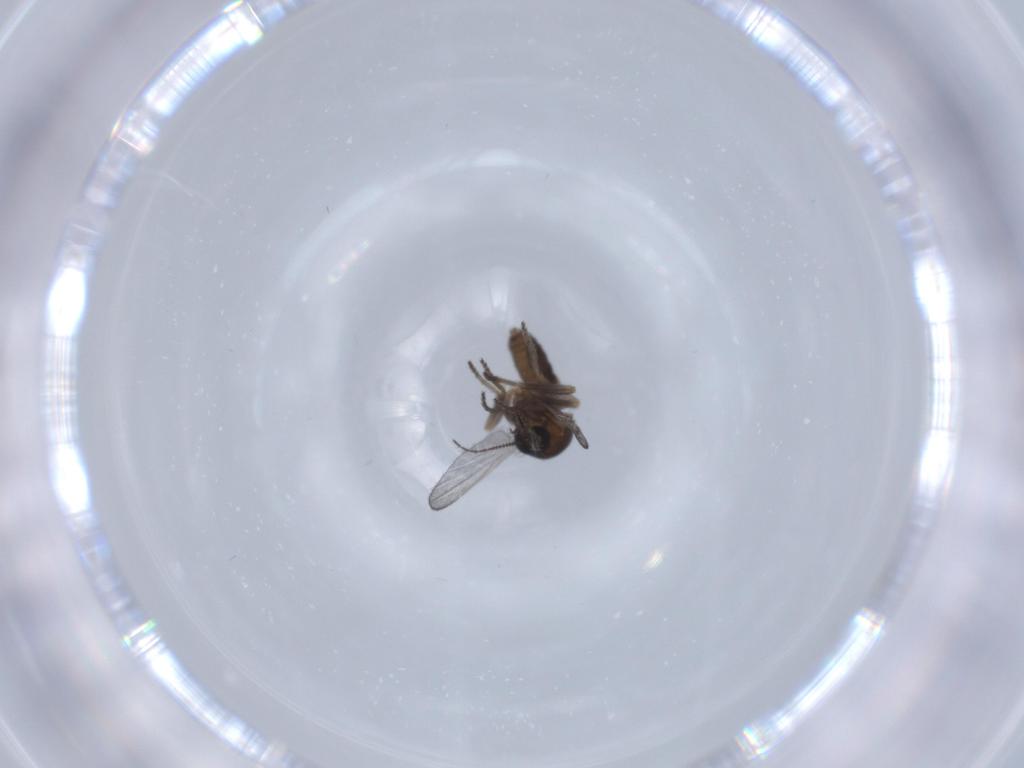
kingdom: Animalia
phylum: Arthropoda
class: Insecta
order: Diptera
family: Ceratopogonidae
